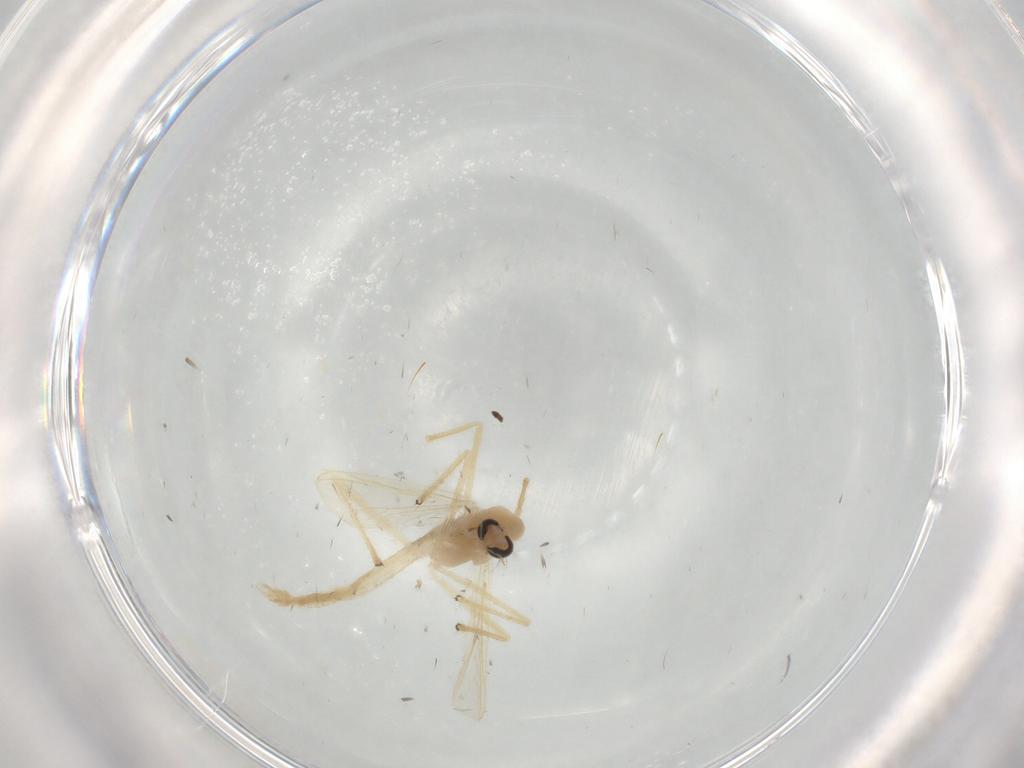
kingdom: Animalia
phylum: Arthropoda
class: Insecta
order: Diptera
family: Chironomidae
